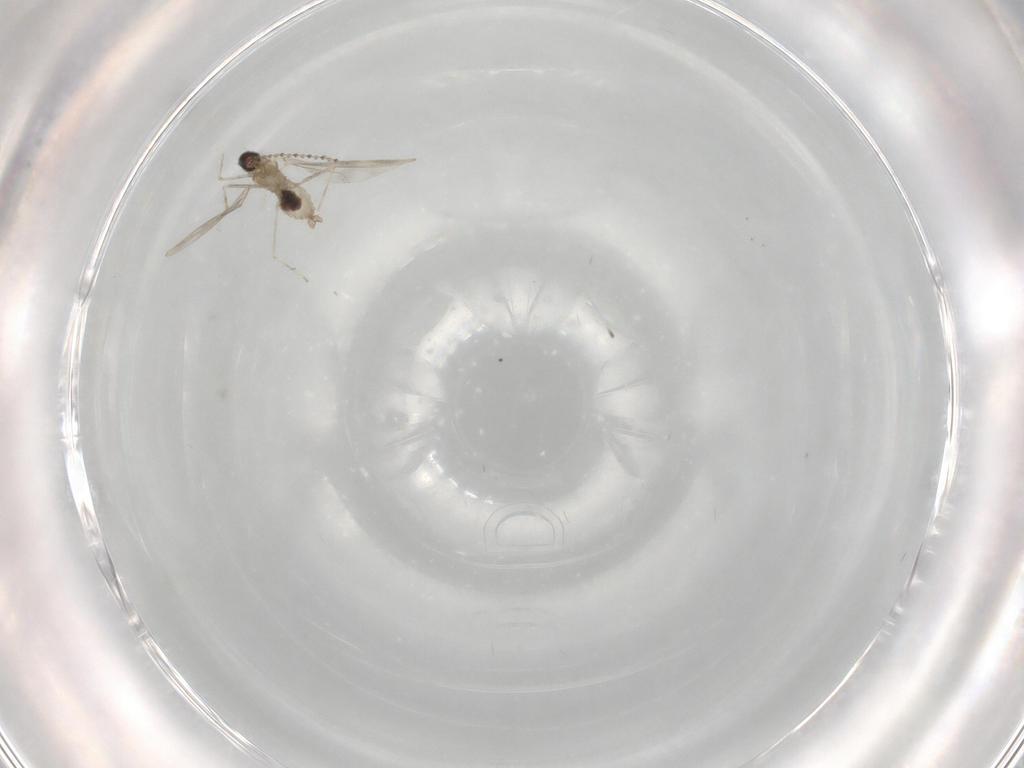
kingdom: Animalia
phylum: Arthropoda
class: Insecta
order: Diptera
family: Cecidomyiidae
